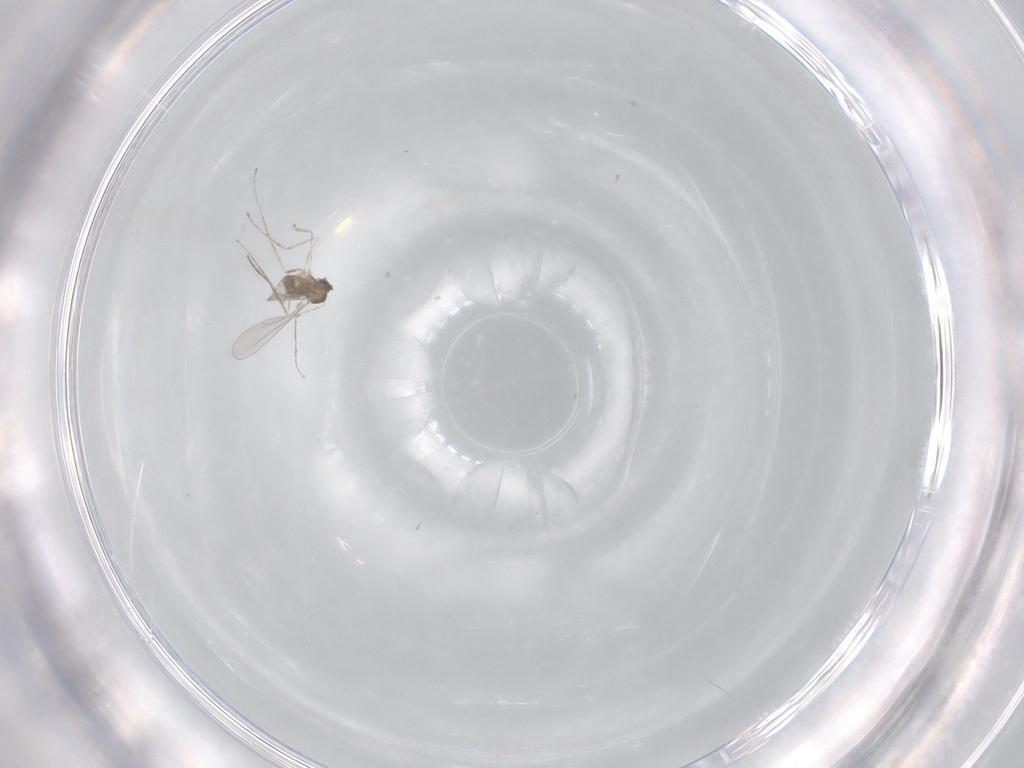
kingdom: Animalia
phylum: Arthropoda
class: Insecta
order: Diptera
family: Cecidomyiidae
